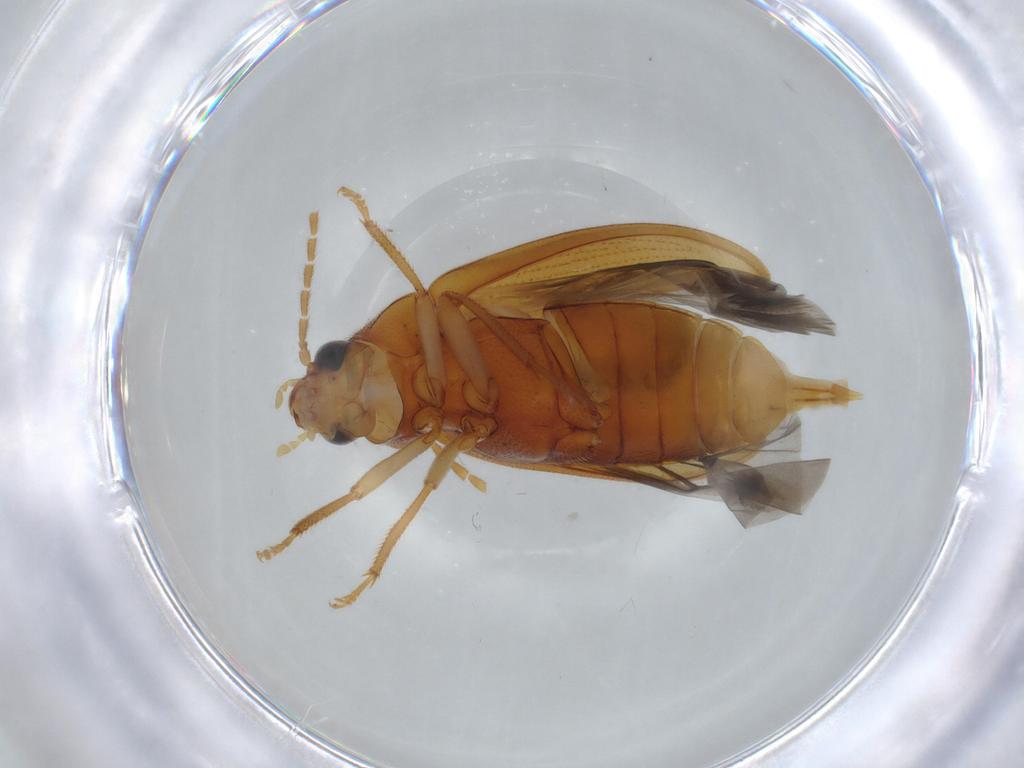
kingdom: Animalia
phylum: Arthropoda
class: Insecta
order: Coleoptera
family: Ptilodactylidae
